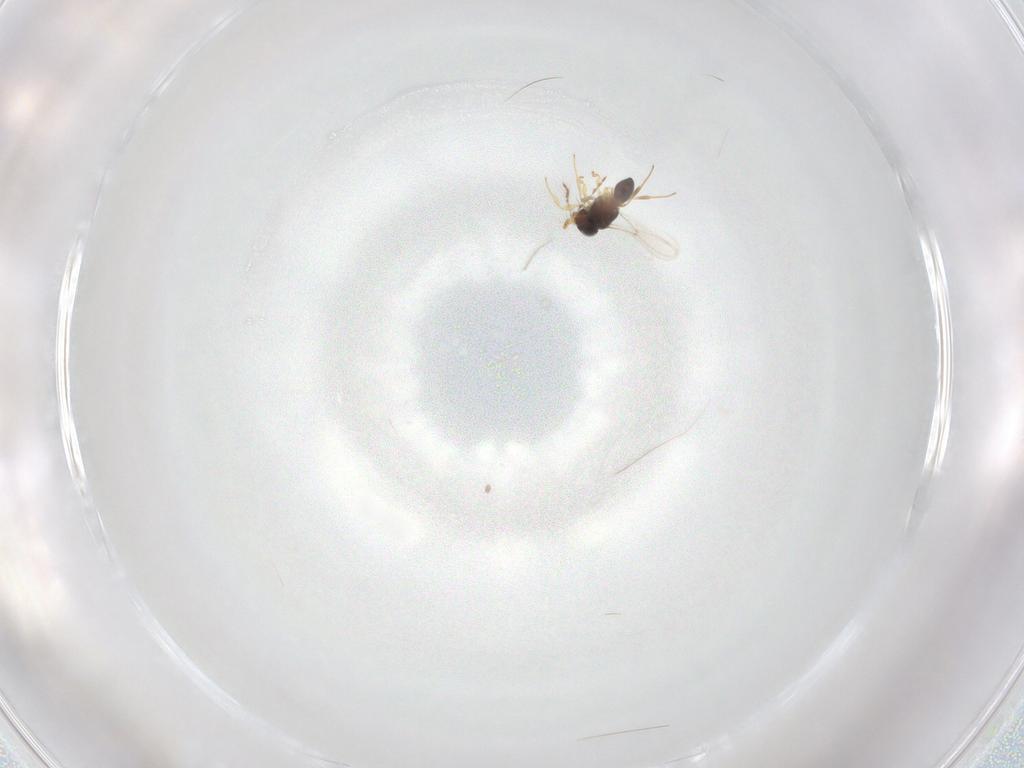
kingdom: Animalia
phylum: Arthropoda
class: Insecta
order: Hymenoptera
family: Platygastridae
